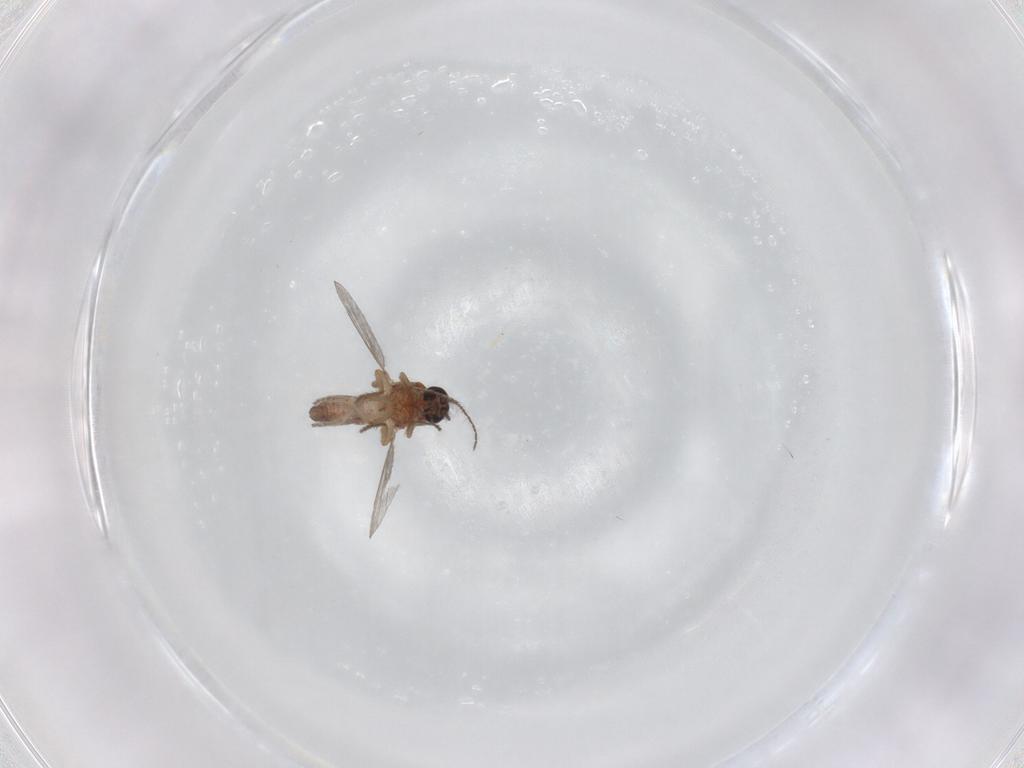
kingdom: Animalia
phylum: Arthropoda
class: Insecta
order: Diptera
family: Ceratopogonidae
